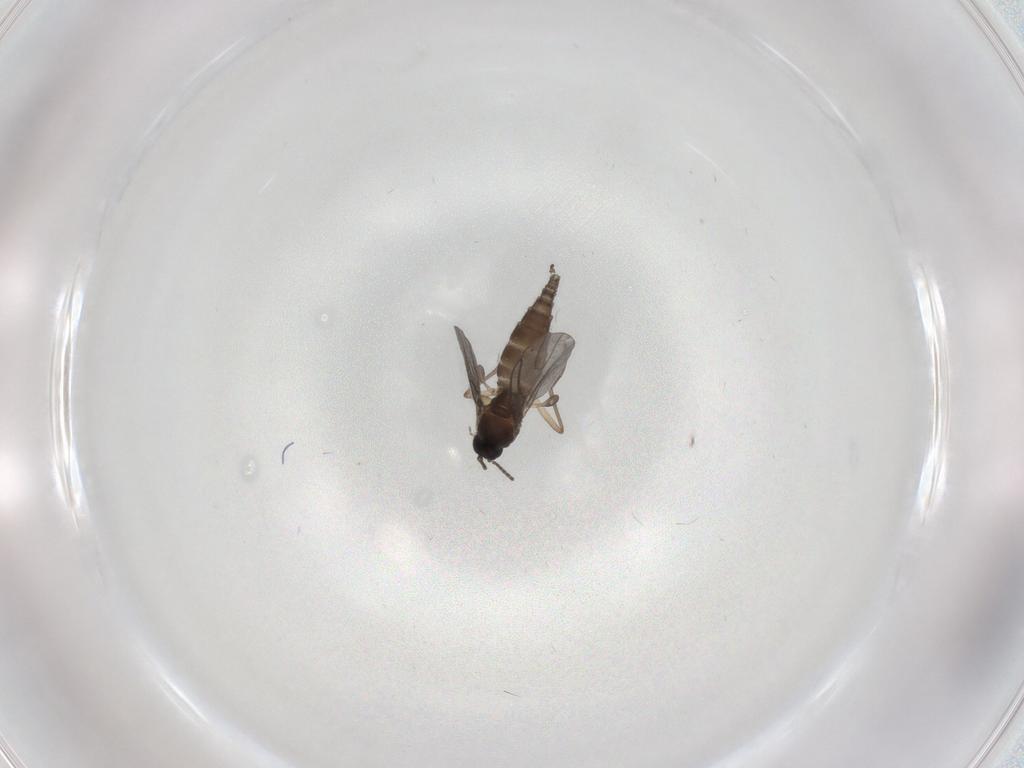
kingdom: Animalia
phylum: Arthropoda
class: Insecta
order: Diptera
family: Sciaridae
